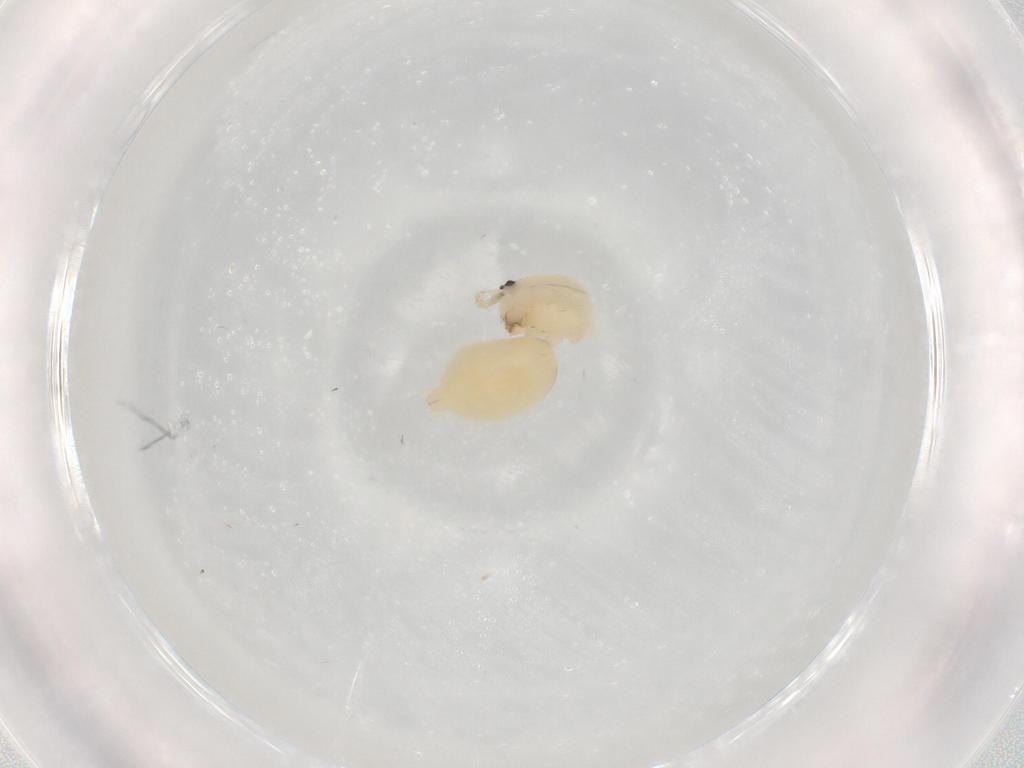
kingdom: Animalia
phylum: Arthropoda
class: Arachnida
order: Araneae
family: Anyphaenidae
